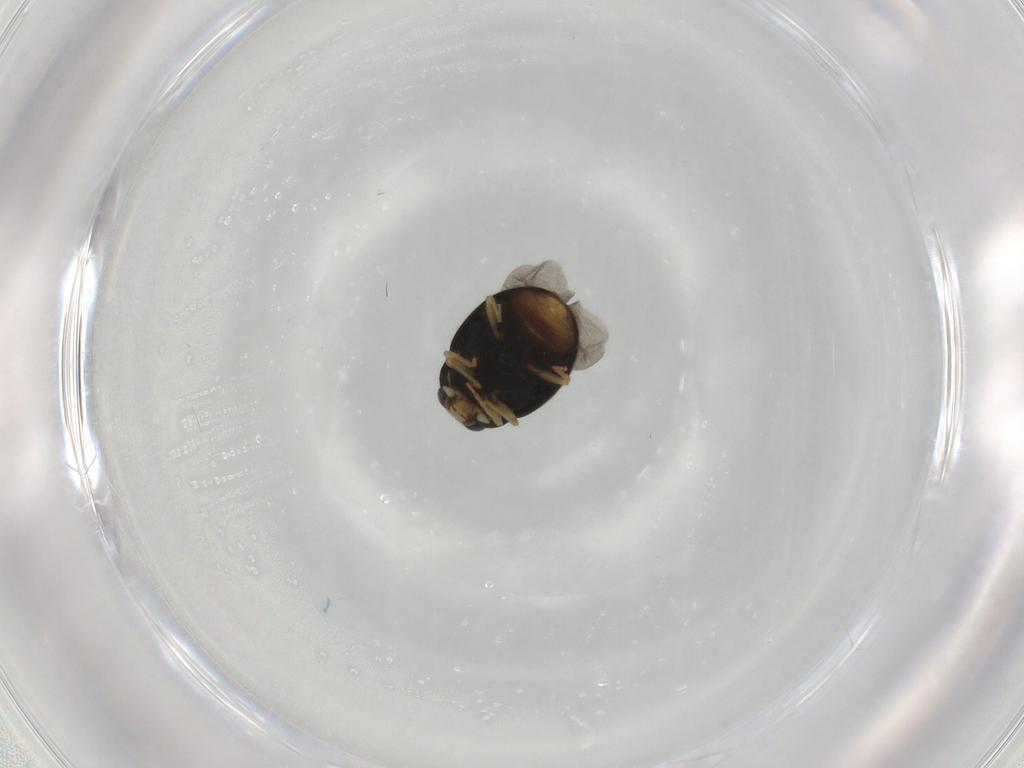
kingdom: Animalia
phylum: Arthropoda
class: Insecta
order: Coleoptera
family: Coccinellidae
